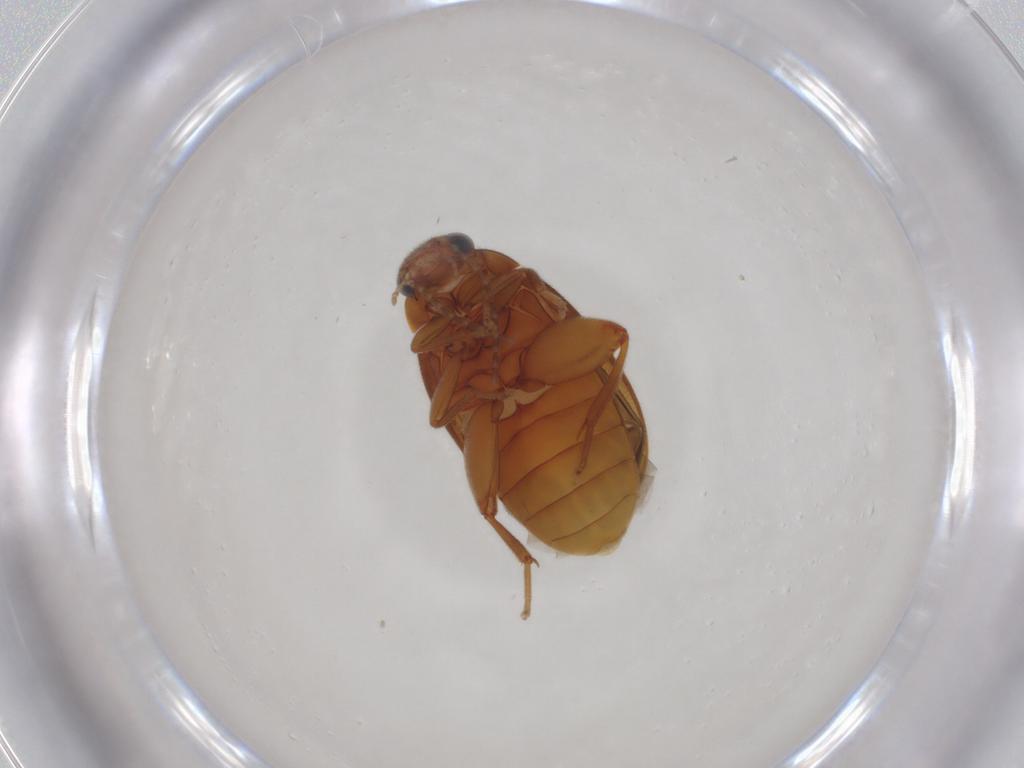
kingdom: Animalia
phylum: Arthropoda
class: Insecta
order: Coleoptera
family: Scirtidae
